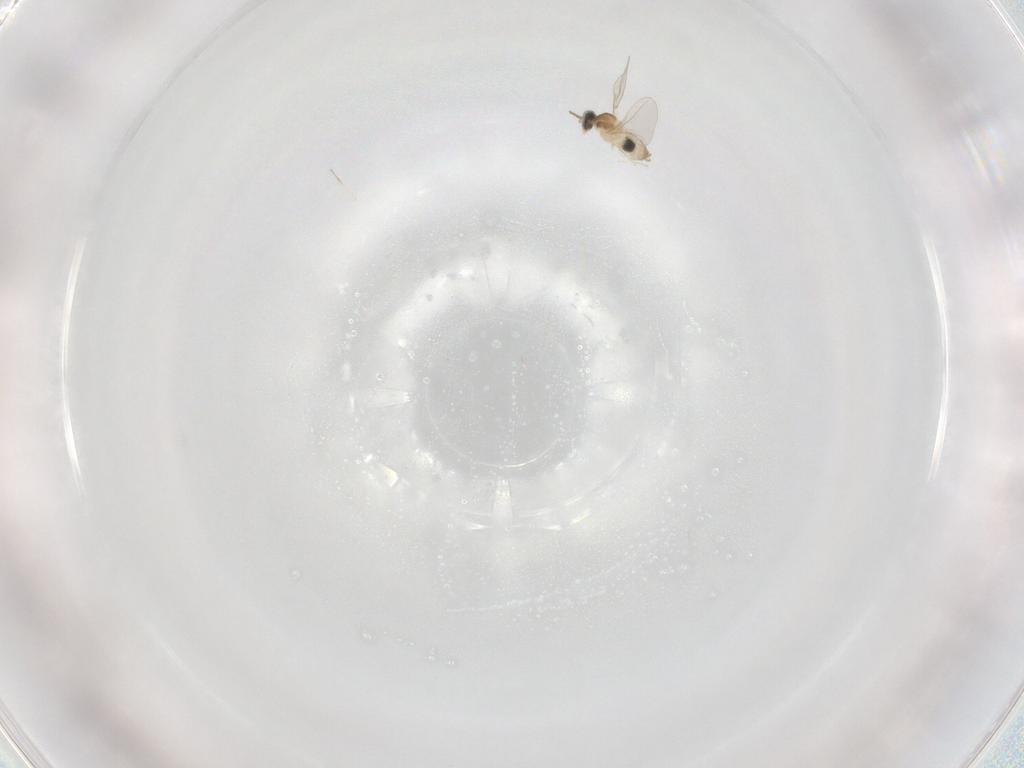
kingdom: Animalia
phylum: Arthropoda
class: Insecta
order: Diptera
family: Cecidomyiidae
